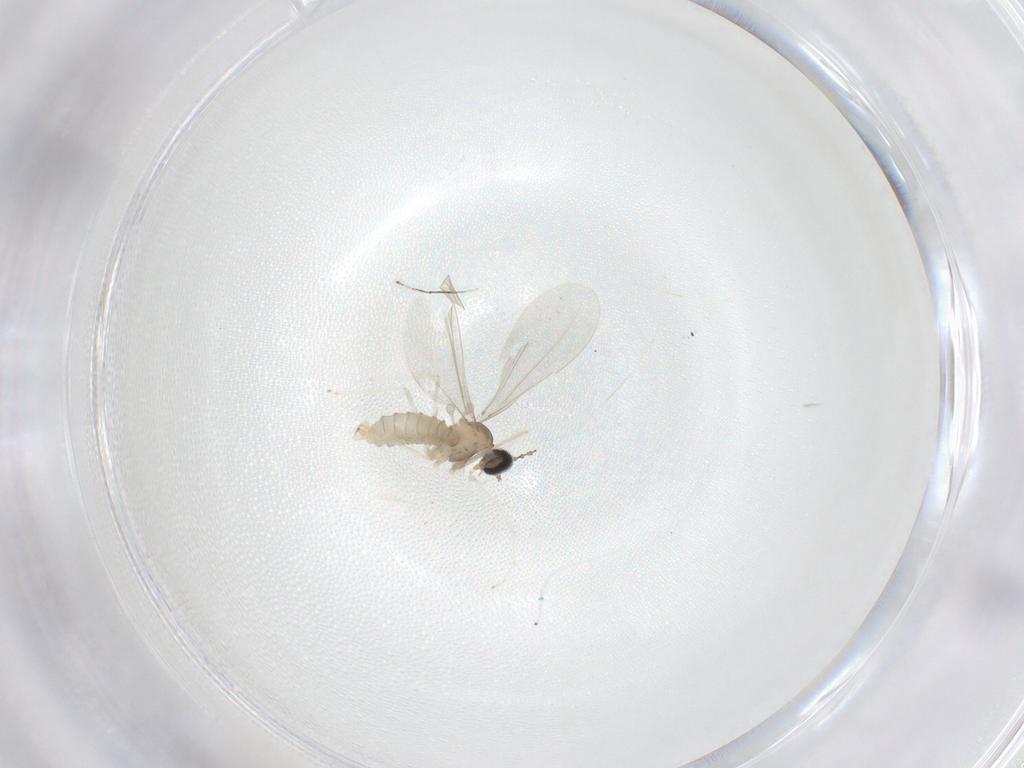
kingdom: Animalia
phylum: Arthropoda
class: Insecta
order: Diptera
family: Cecidomyiidae
